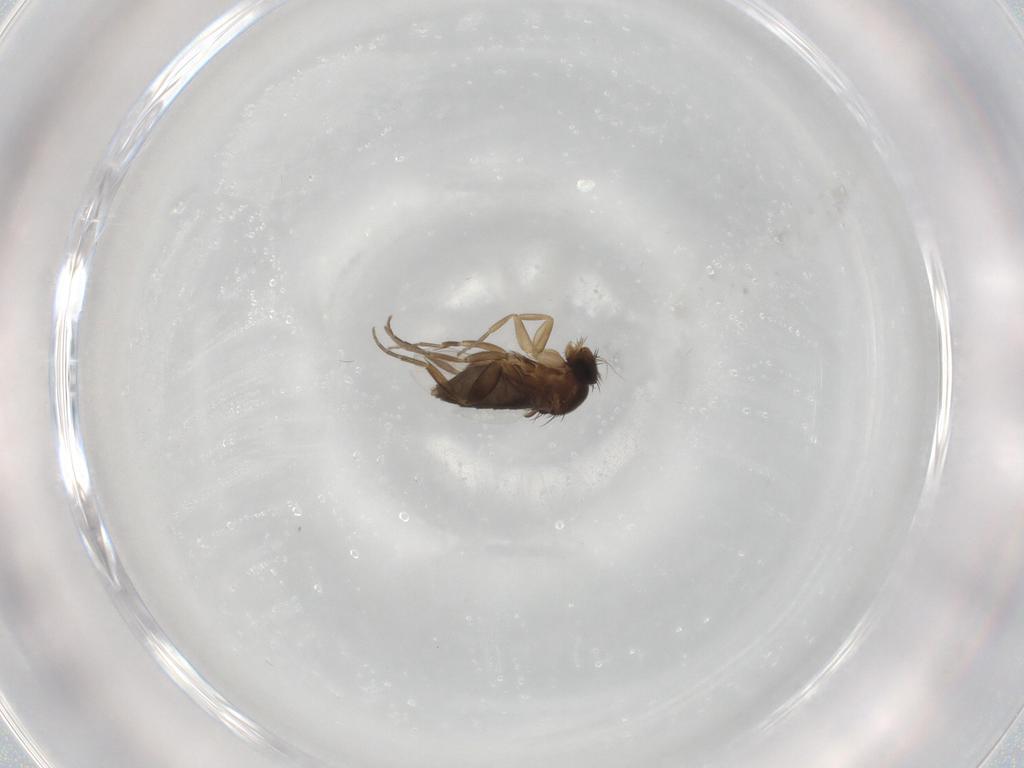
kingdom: Animalia
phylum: Arthropoda
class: Insecta
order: Diptera
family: Phoridae
